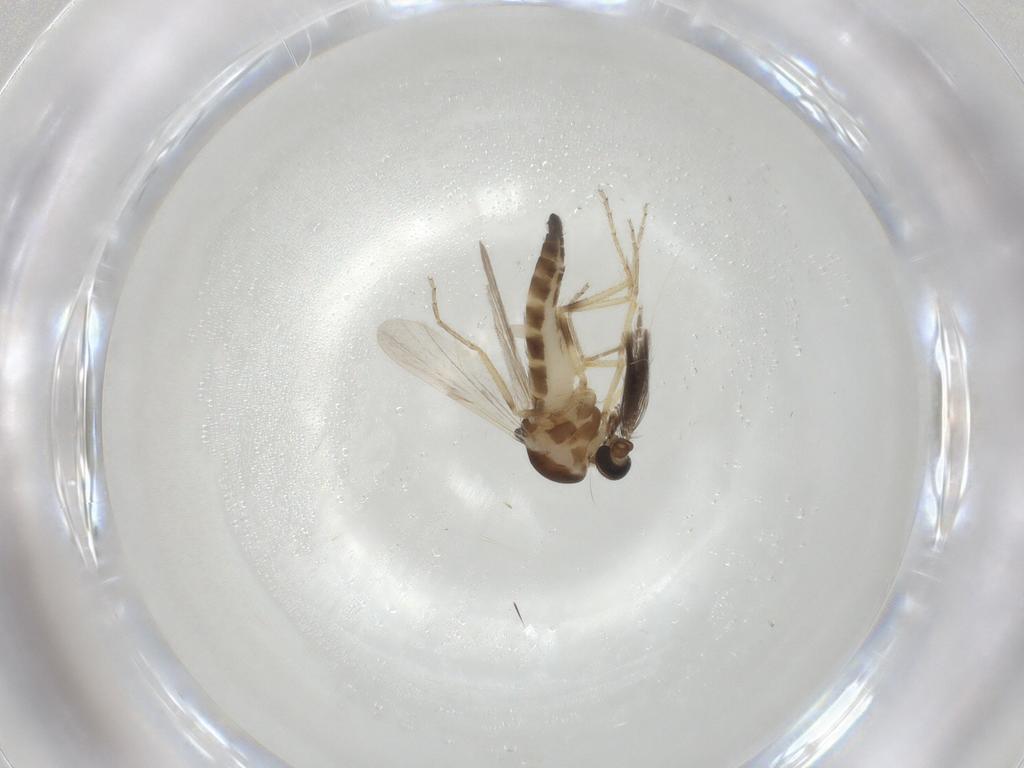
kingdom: Animalia
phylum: Arthropoda
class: Insecta
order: Diptera
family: Ceratopogonidae
